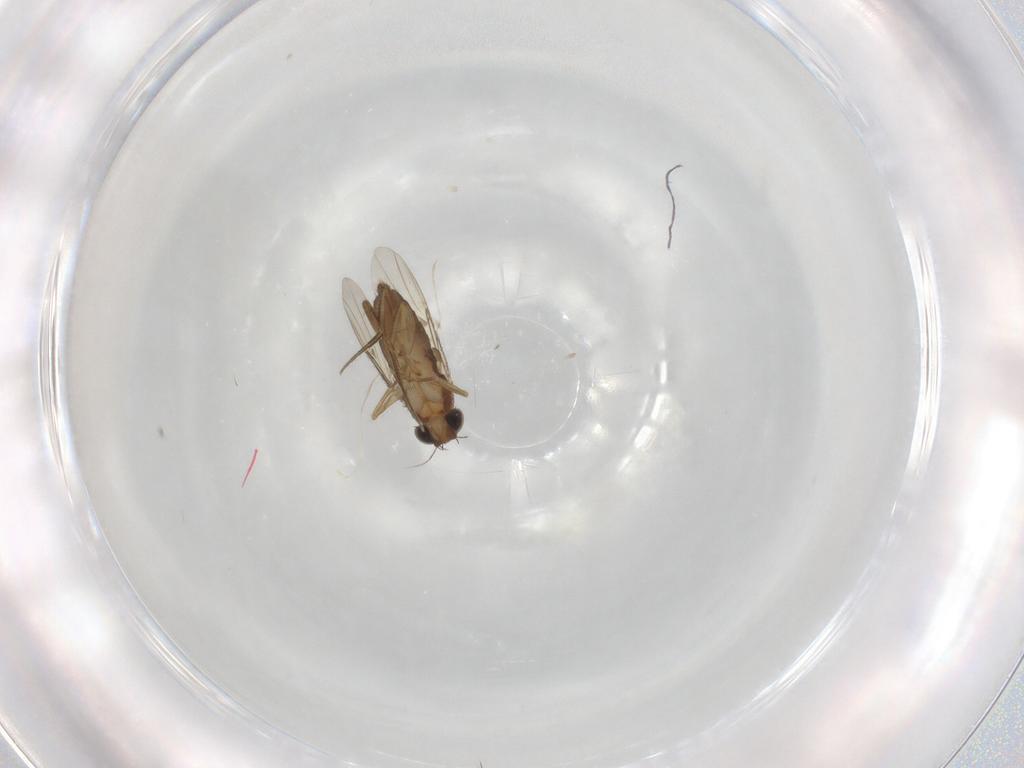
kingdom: Animalia
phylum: Arthropoda
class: Insecta
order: Diptera
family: Phoridae
